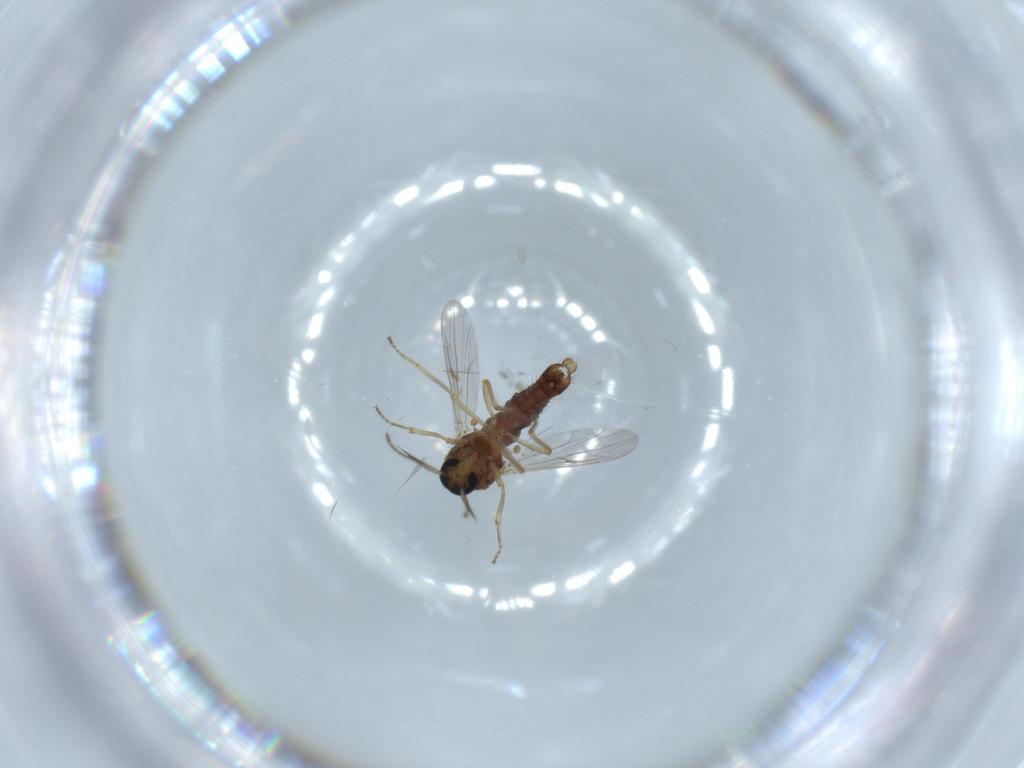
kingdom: Animalia
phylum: Arthropoda
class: Insecta
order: Diptera
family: Ceratopogonidae
